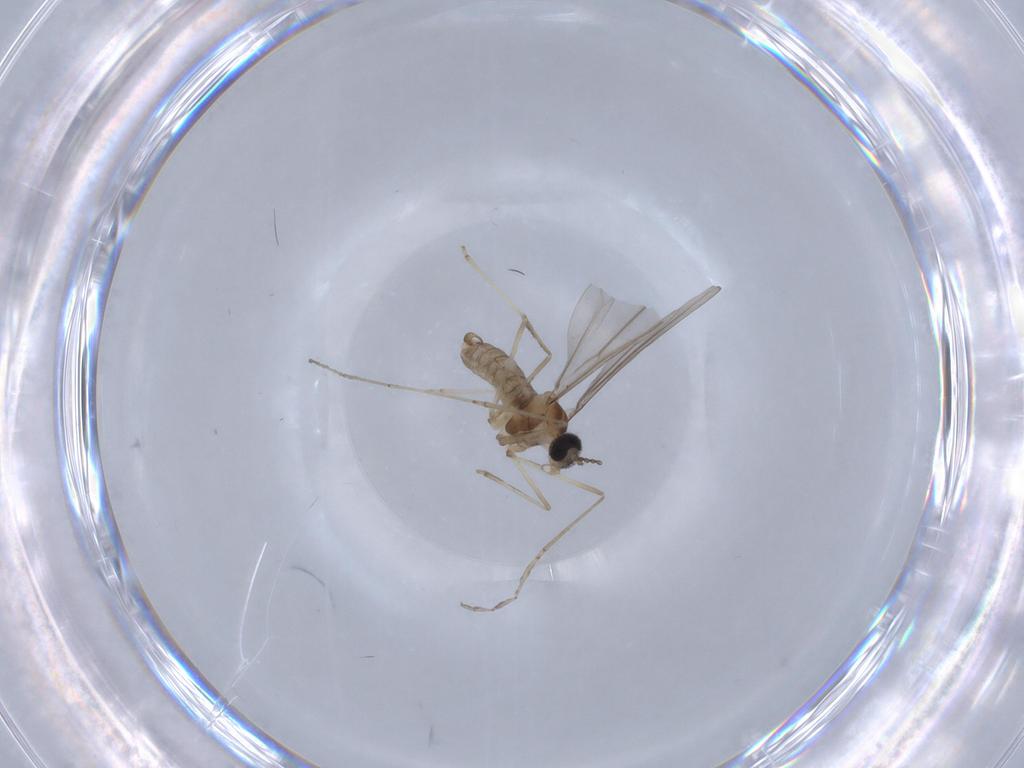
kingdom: Animalia
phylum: Arthropoda
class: Insecta
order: Diptera
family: Cecidomyiidae
